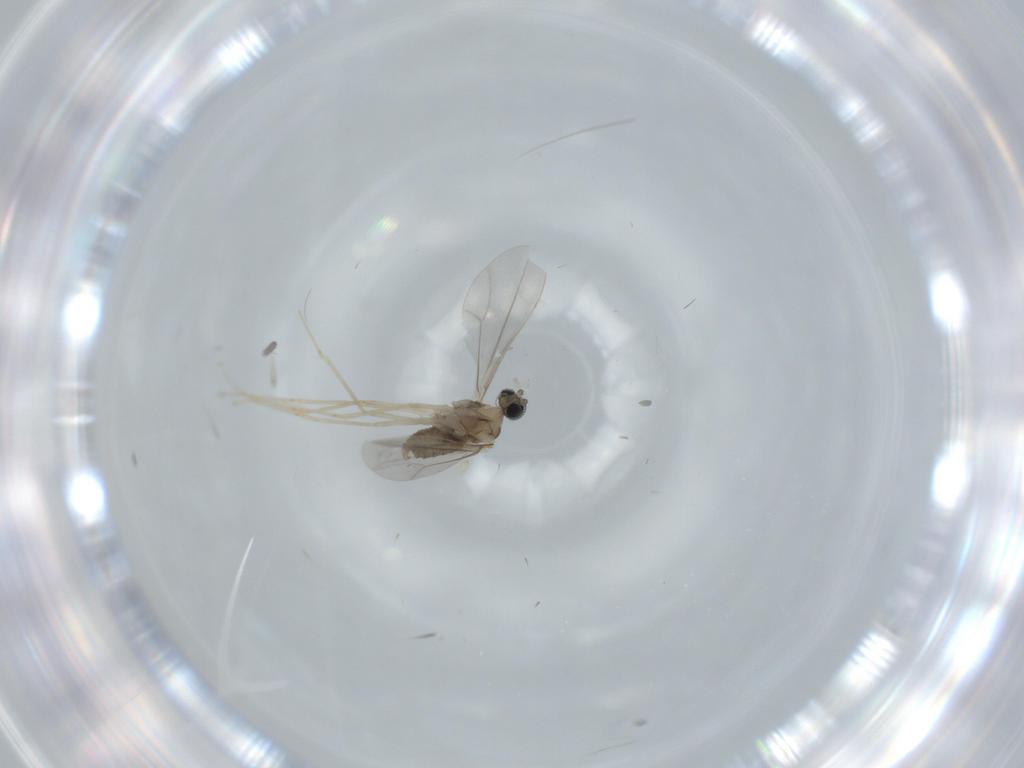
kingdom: Animalia
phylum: Arthropoda
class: Insecta
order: Diptera
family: Cecidomyiidae
